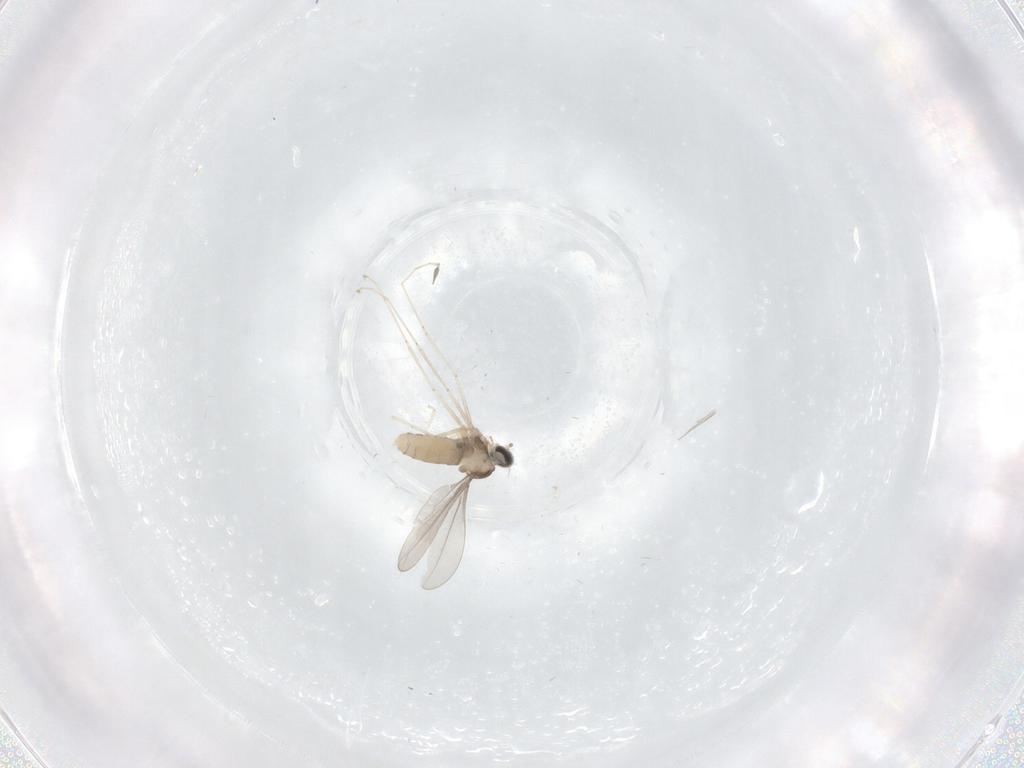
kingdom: Animalia
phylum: Arthropoda
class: Insecta
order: Diptera
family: Cecidomyiidae
